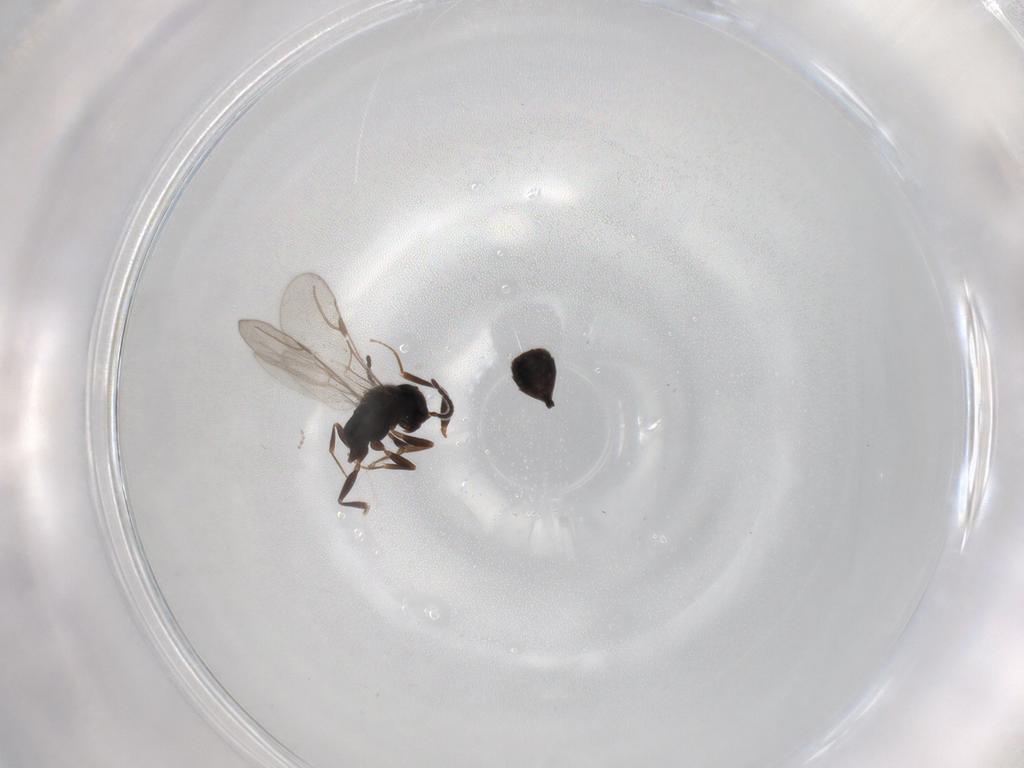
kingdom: Animalia
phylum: Arthropoda
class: Insecta
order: Hymenoptera
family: Bethylidae
